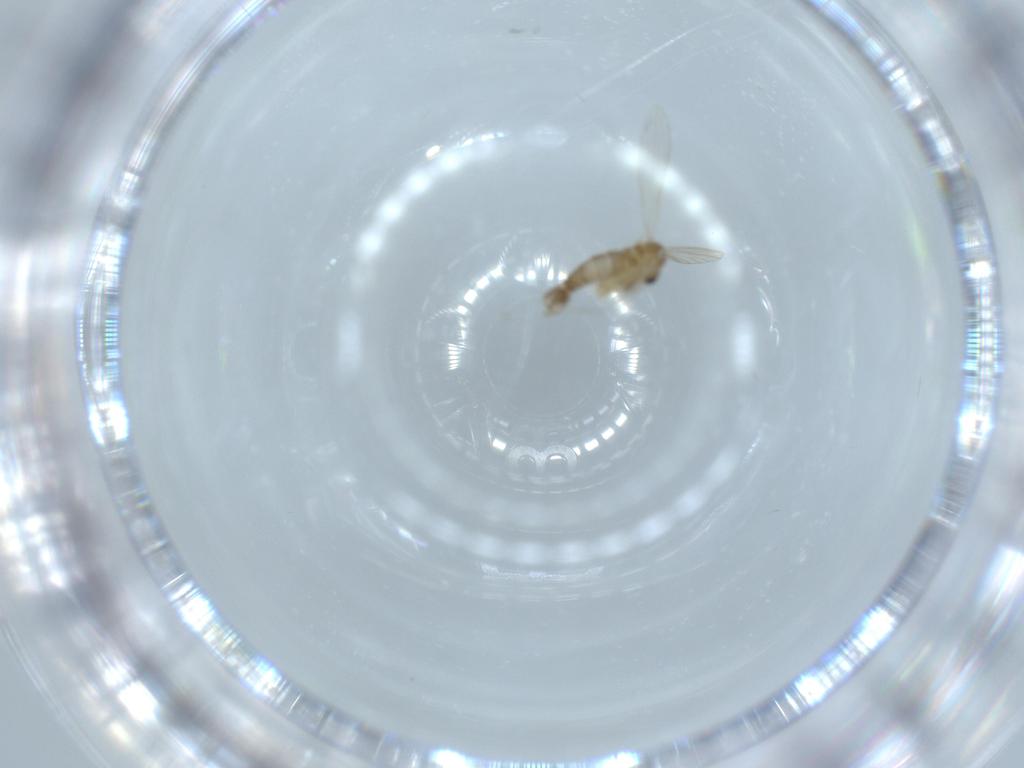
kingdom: Animalia
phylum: Arthropoda
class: Insecta
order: Diptera
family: Psychodidae
